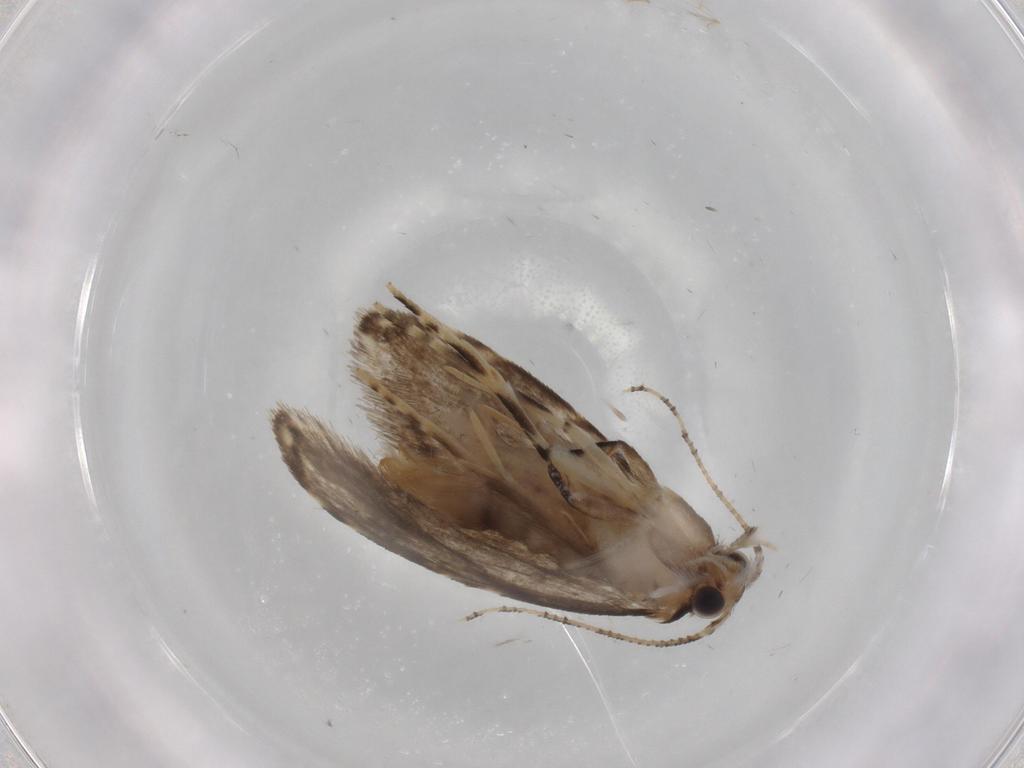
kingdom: Animalia
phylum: Arthropoda
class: Insecta
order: Lepidoptera
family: Tineidae
